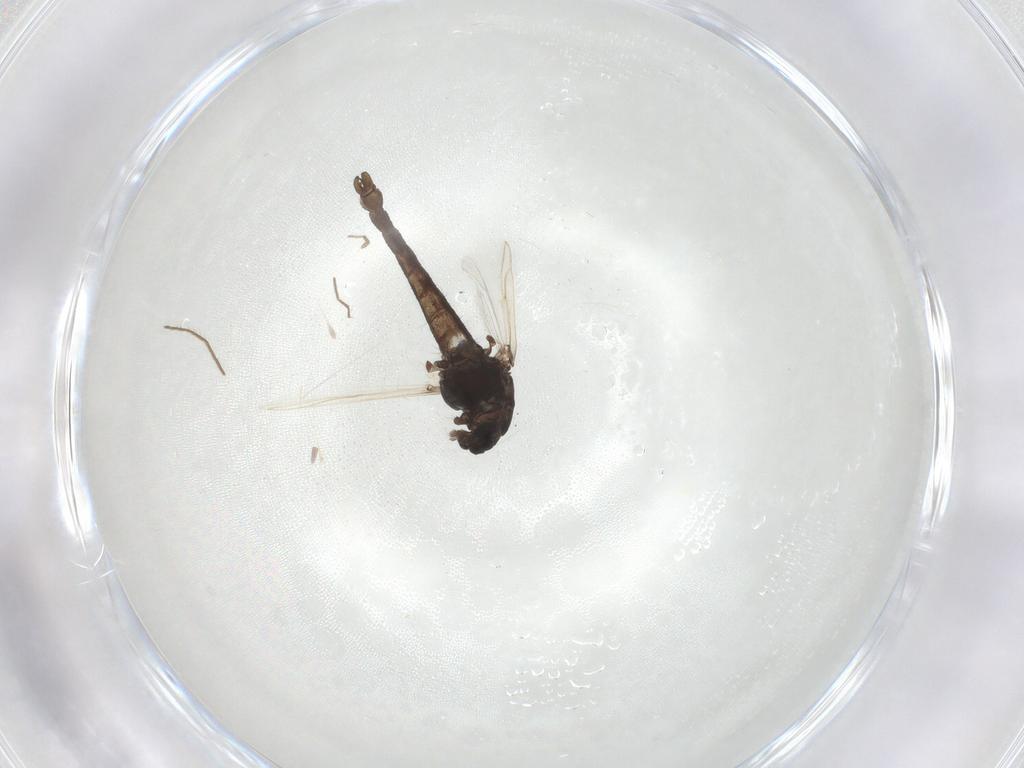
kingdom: Animalia
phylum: Arthropoda
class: Insecta
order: Diptera
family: Chironomidae
